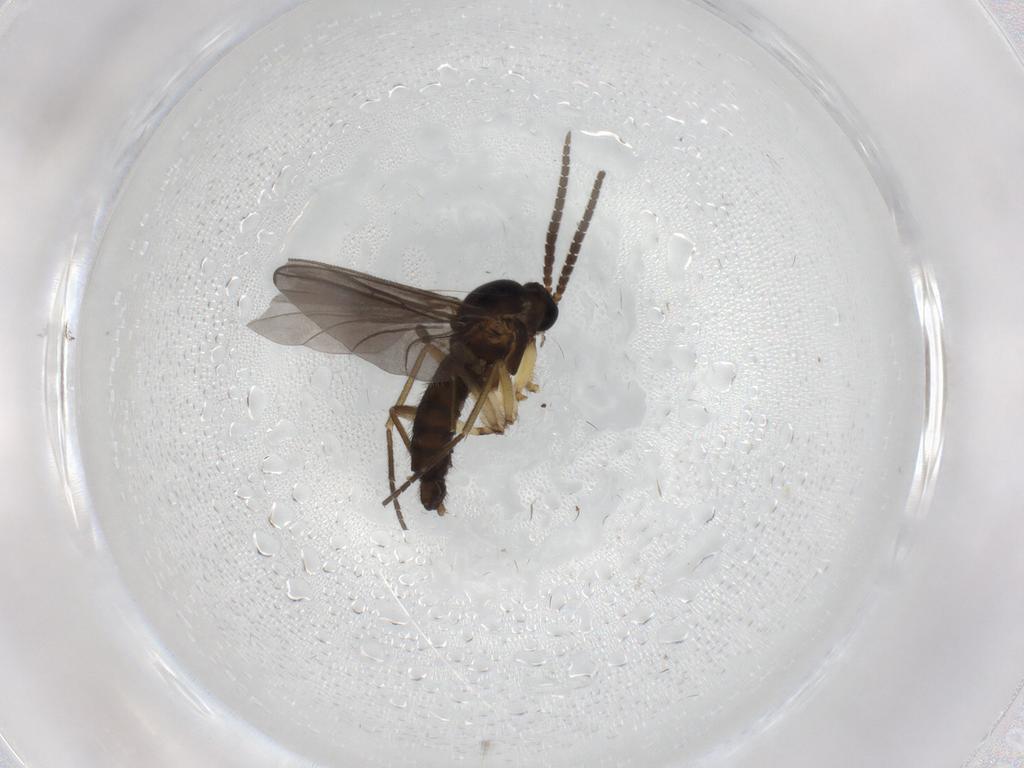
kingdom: Animalia
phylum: Arthropoda
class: Insecta
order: Diptera
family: Sciaridae
